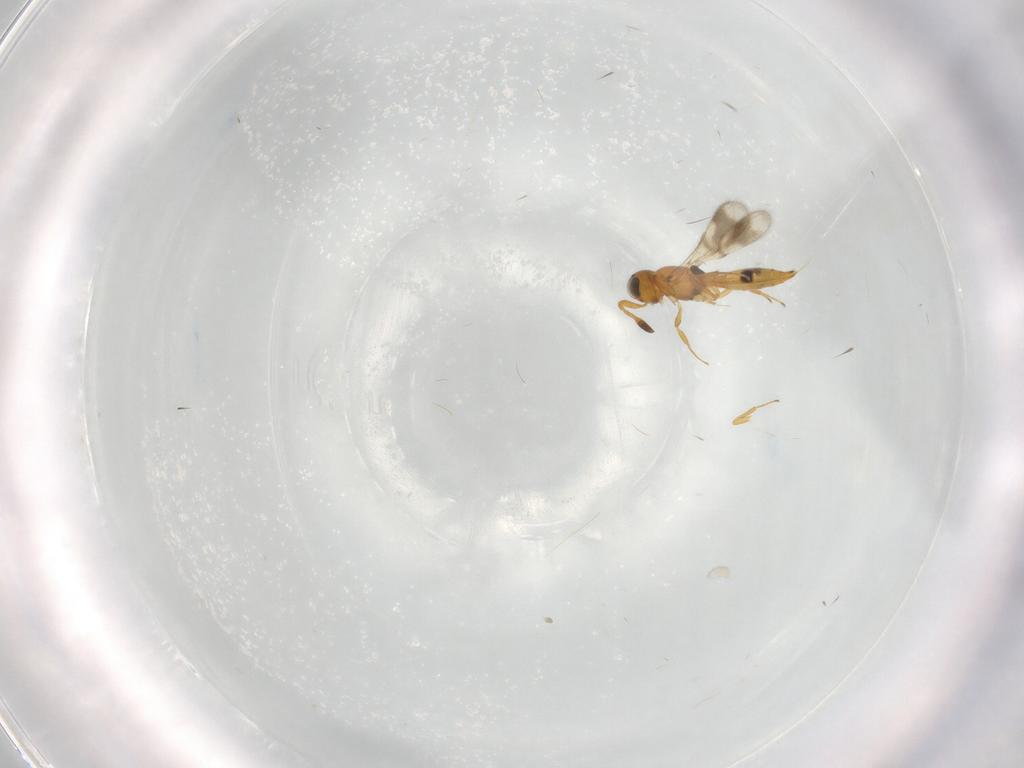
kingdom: Animalia
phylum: Arthropoda
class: Insecta
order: Hymenoptera
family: Scelionidae
